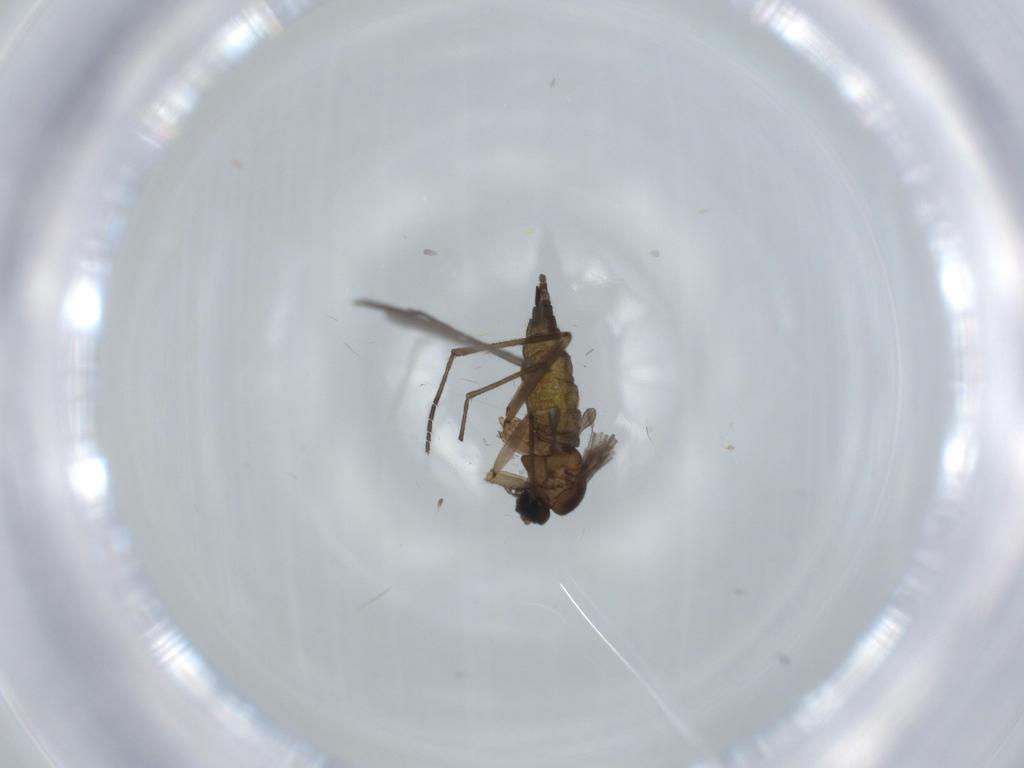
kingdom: Animalia
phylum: Arthropoda
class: Insecta
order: Diptera
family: Sciaridae
